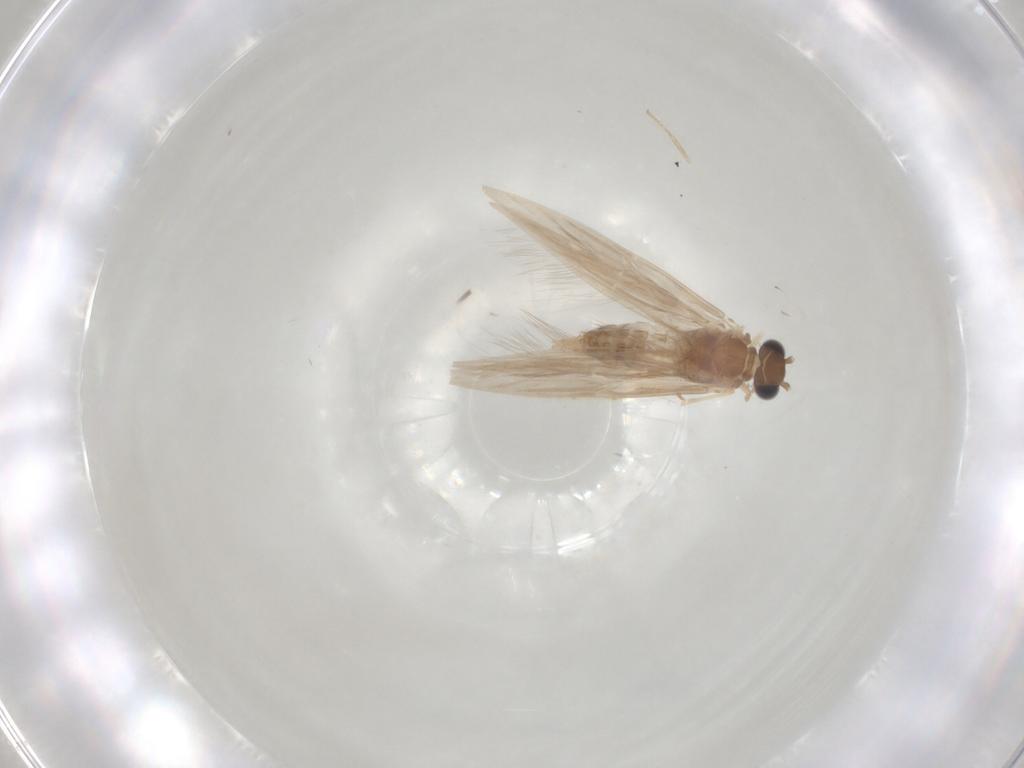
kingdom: Animalia
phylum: Arthropoda
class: Insecta
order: Trichoptera
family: Hydroptilidae
